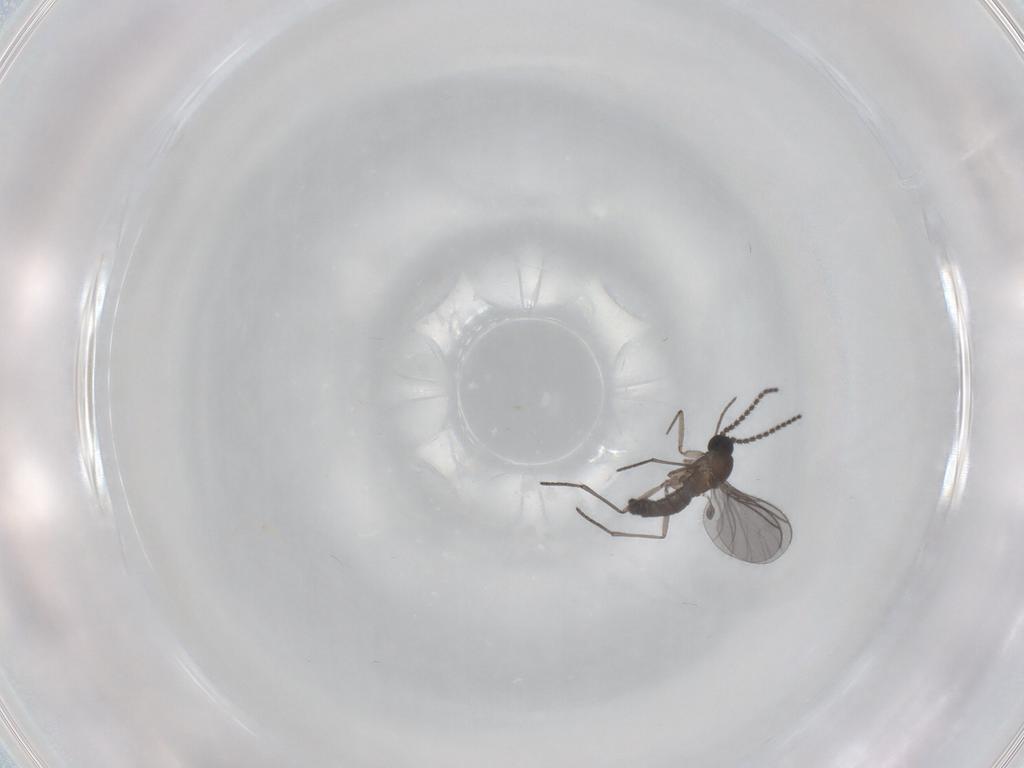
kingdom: Animalia
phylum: Arthropoda
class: Insecta
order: Diptera
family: Sciaridae
